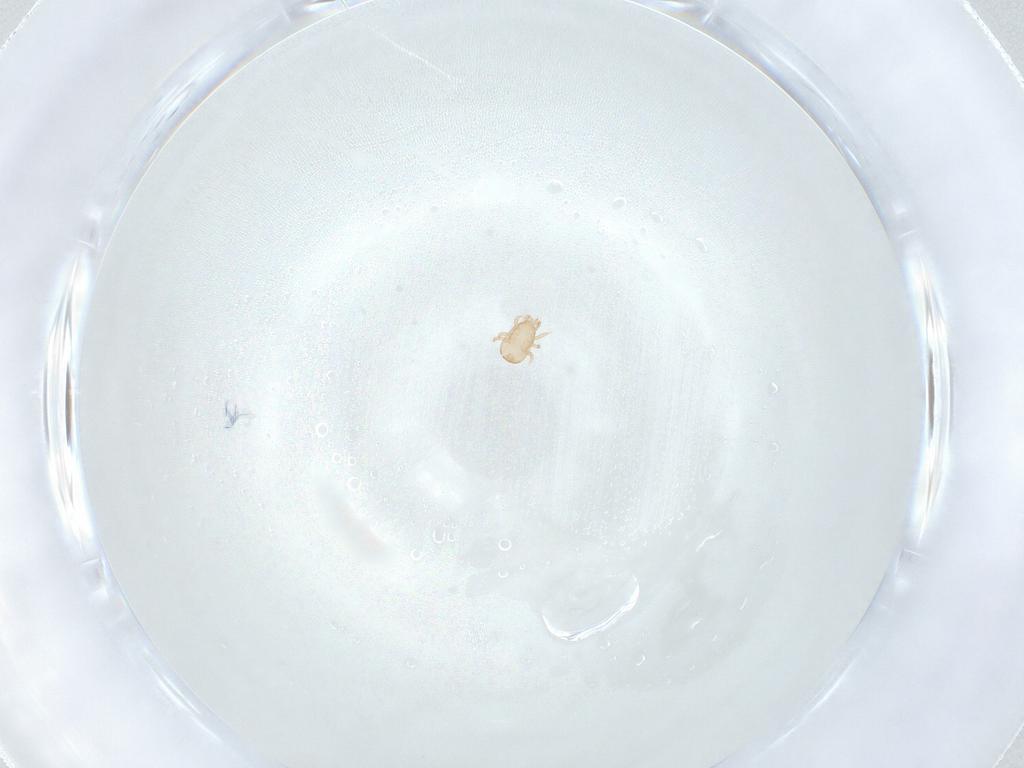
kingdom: Animalia
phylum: Arthropoda
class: Arachnida
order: Mesostigmata
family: Ascidae
